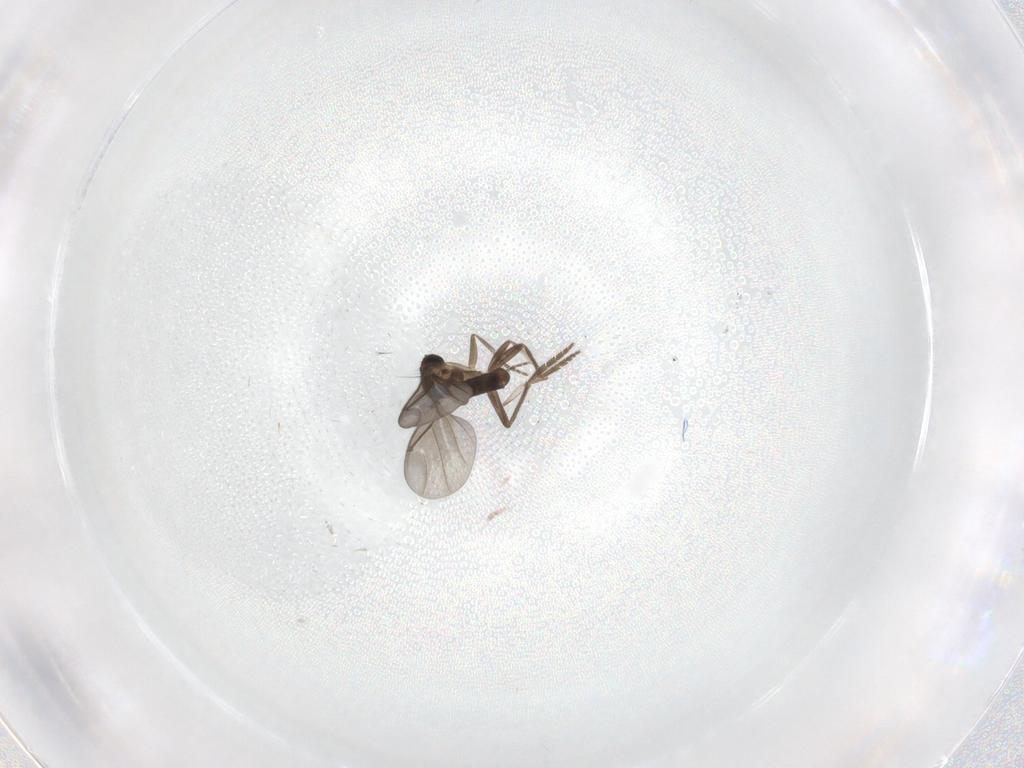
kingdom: Animalia
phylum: Arthropoda
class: Insecta
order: Diptera
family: Phoridae
